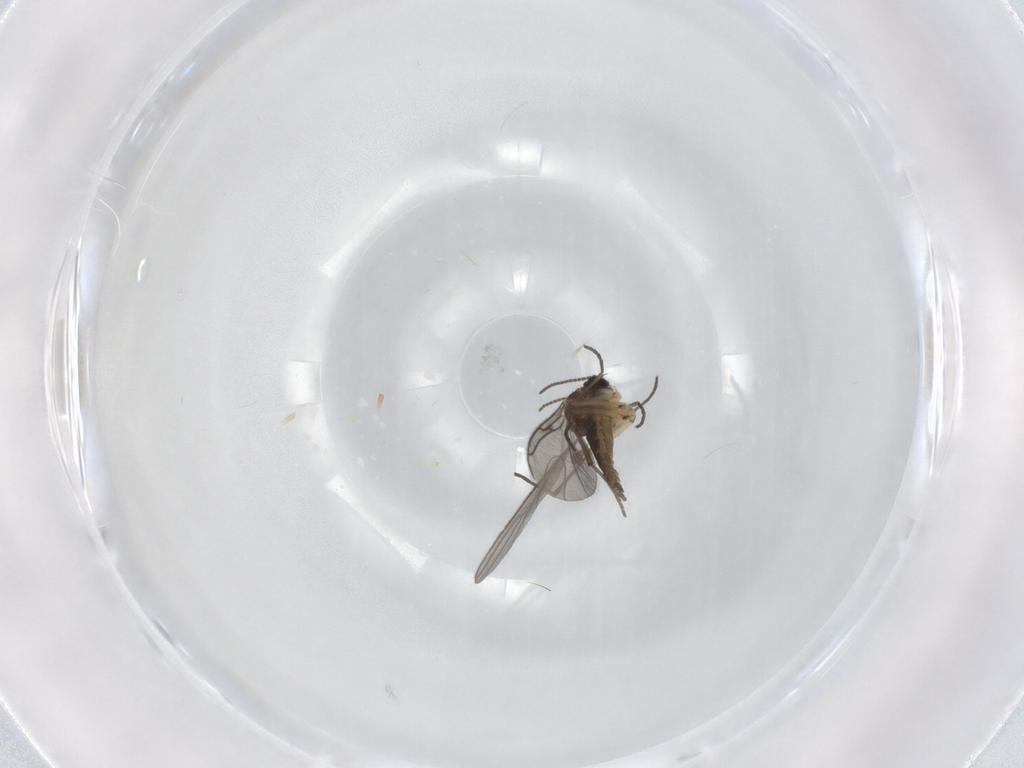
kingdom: Animalia
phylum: Arthropoda
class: Insecta
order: Diptera
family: Sciaridae
